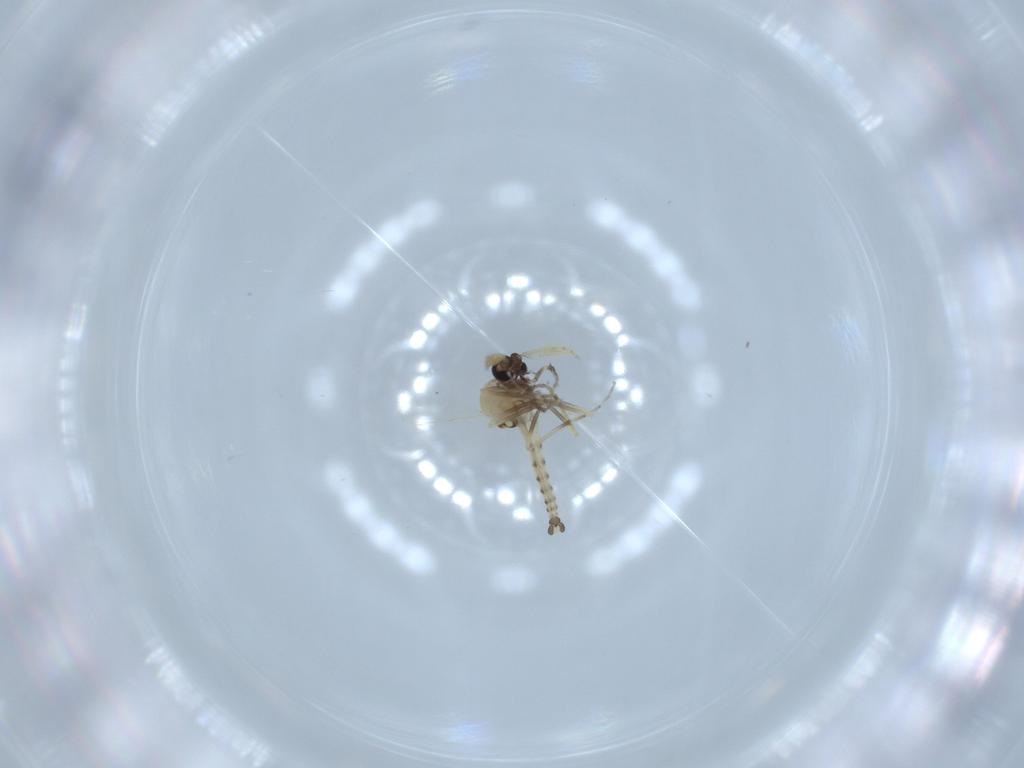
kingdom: Animalia
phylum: Arthropoda
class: Insecta
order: Diptera
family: Ceratopogonidae
